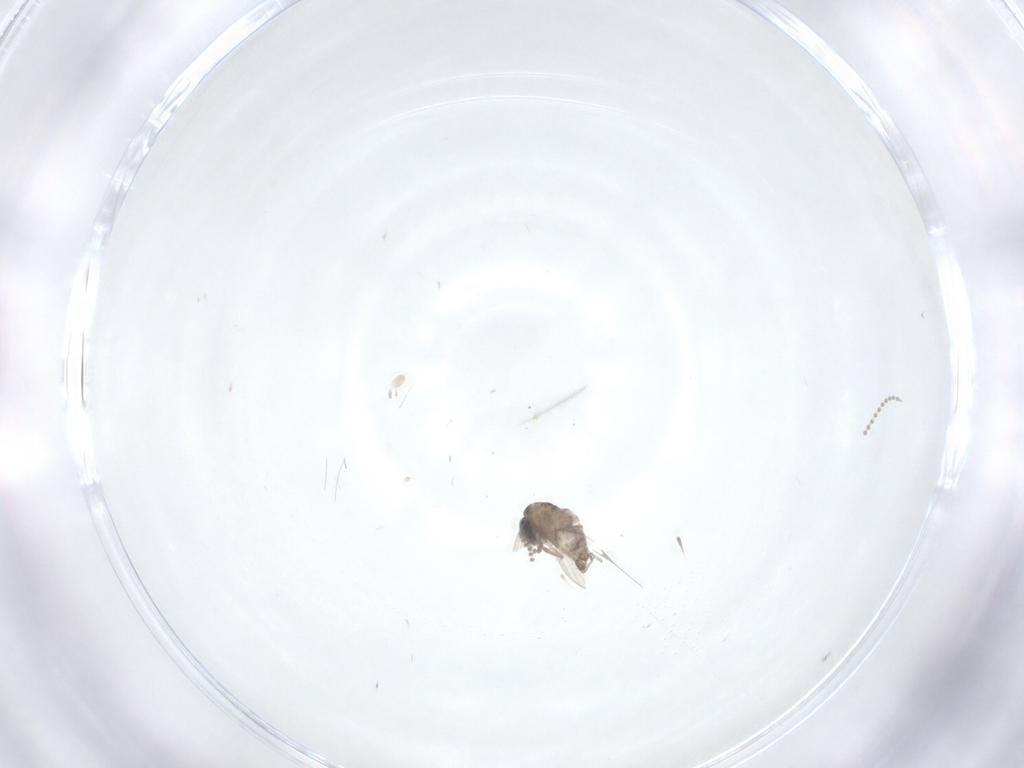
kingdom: Animalia
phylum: Arthropoda
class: Insecta
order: Diptera
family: Psychodidae
